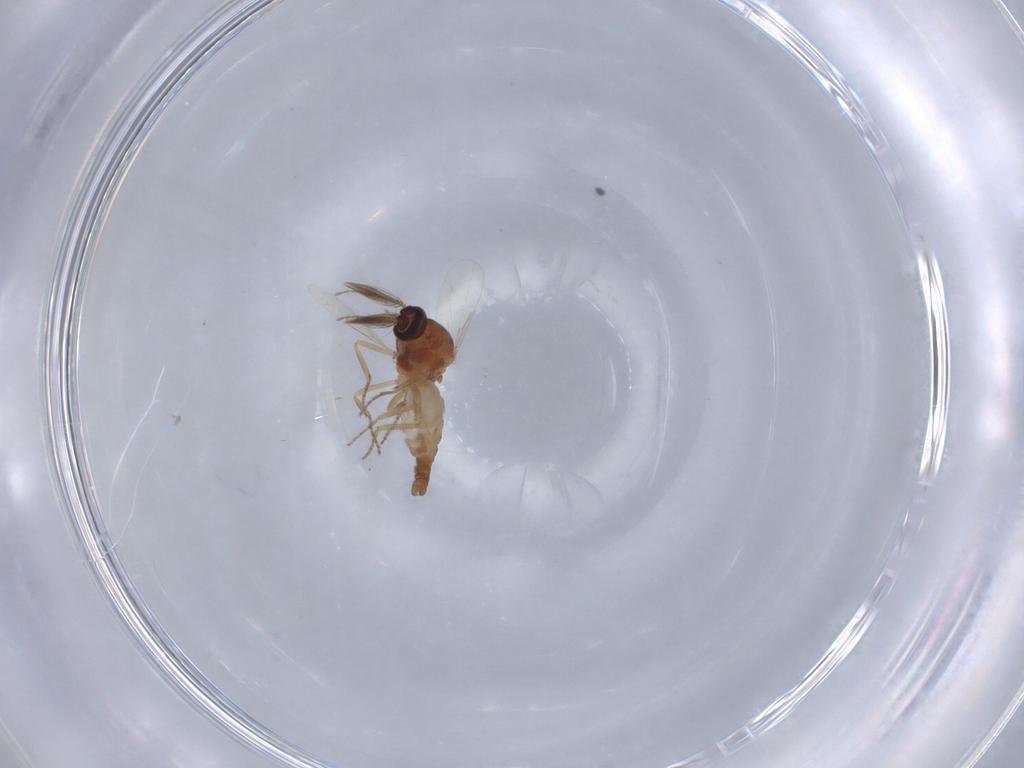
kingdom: Animalia
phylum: Arthropoda
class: Insecta
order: Diptera
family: Ceratopogonidae
